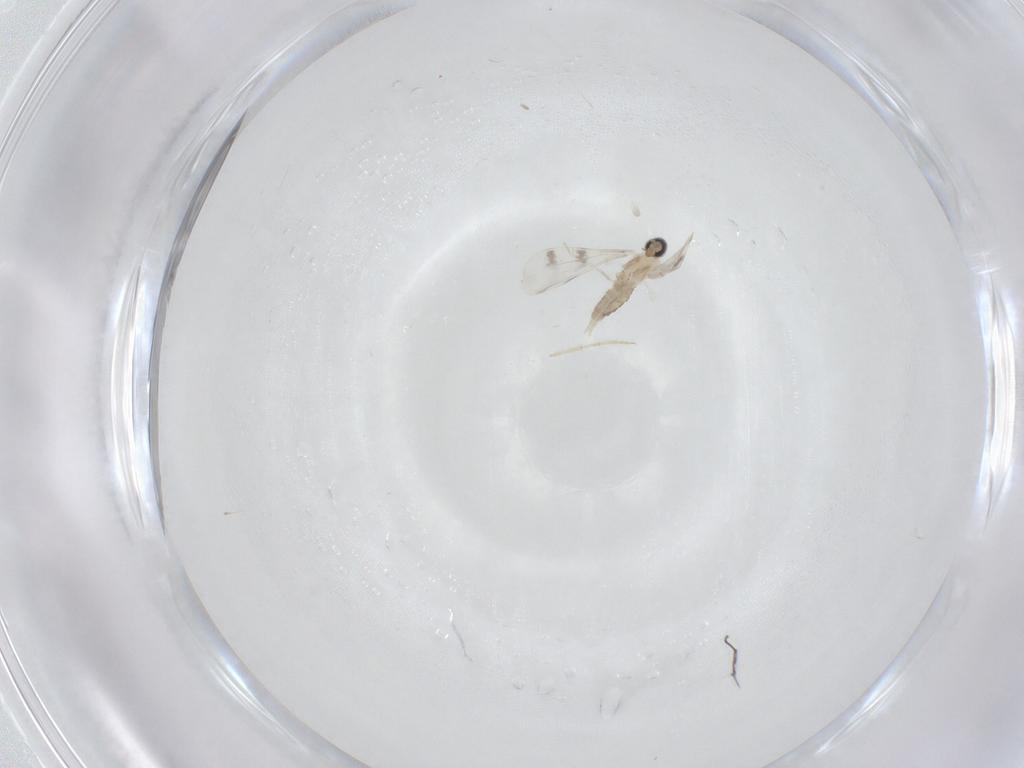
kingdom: Animalia
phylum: Arthropoda
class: Insecta
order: Diptera
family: Cecidomyiidae
